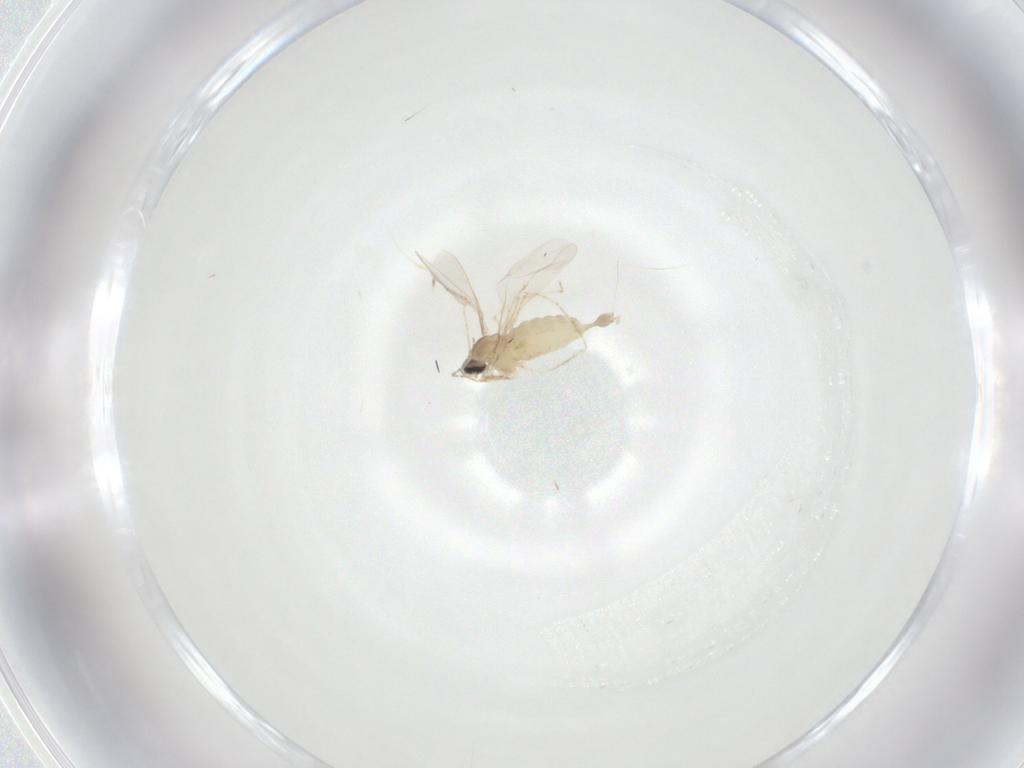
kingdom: Animalia
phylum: Arthropoda
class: Insecta
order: Diptera
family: Cecidomyiidae
